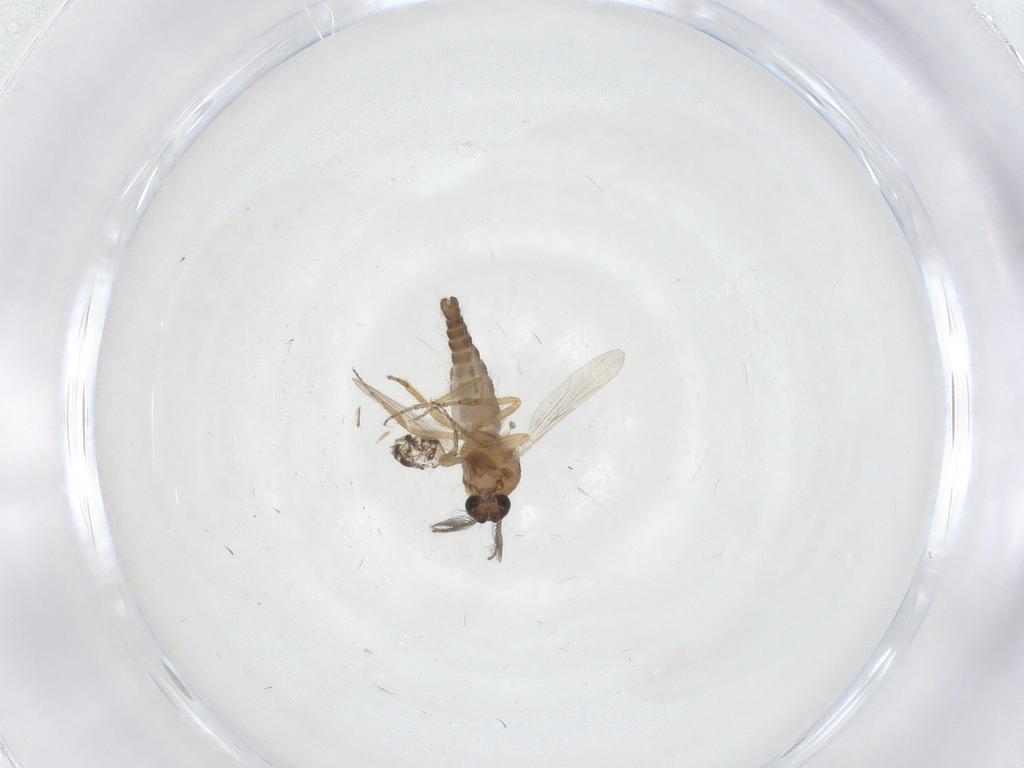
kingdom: Animalia
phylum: Arthropoda
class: Insecta
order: Diptera
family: Ceratopogonidae
